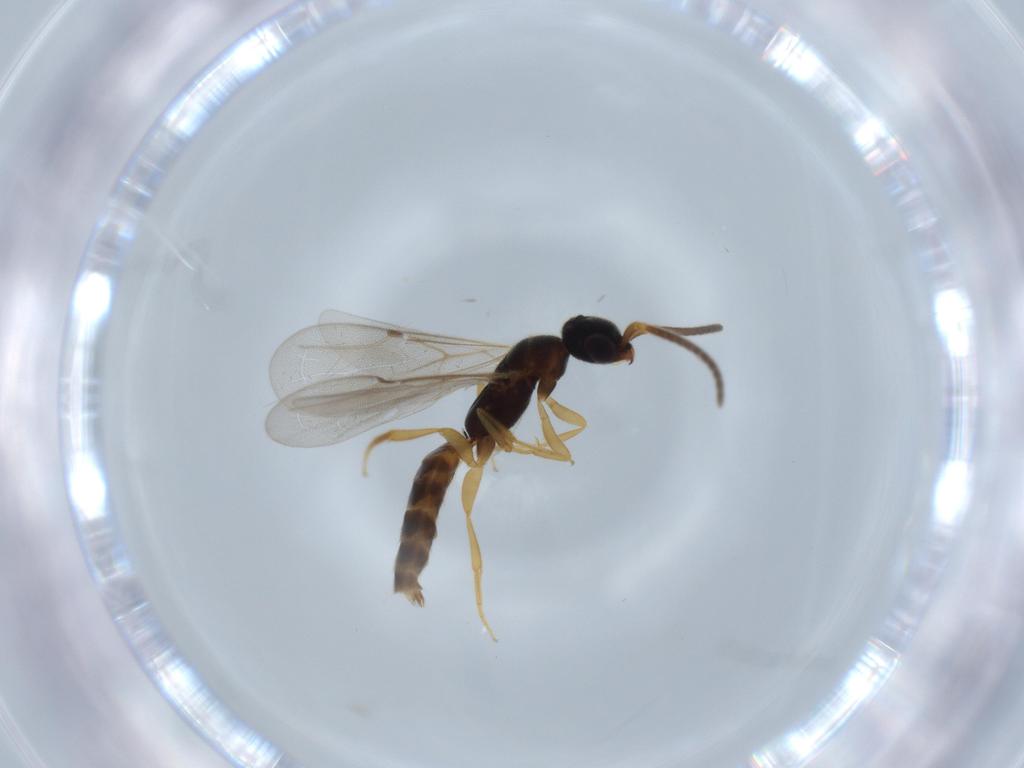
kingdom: Animalia
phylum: Arthropoda
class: Insecta
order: Hymenoptera
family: Bethylidae
